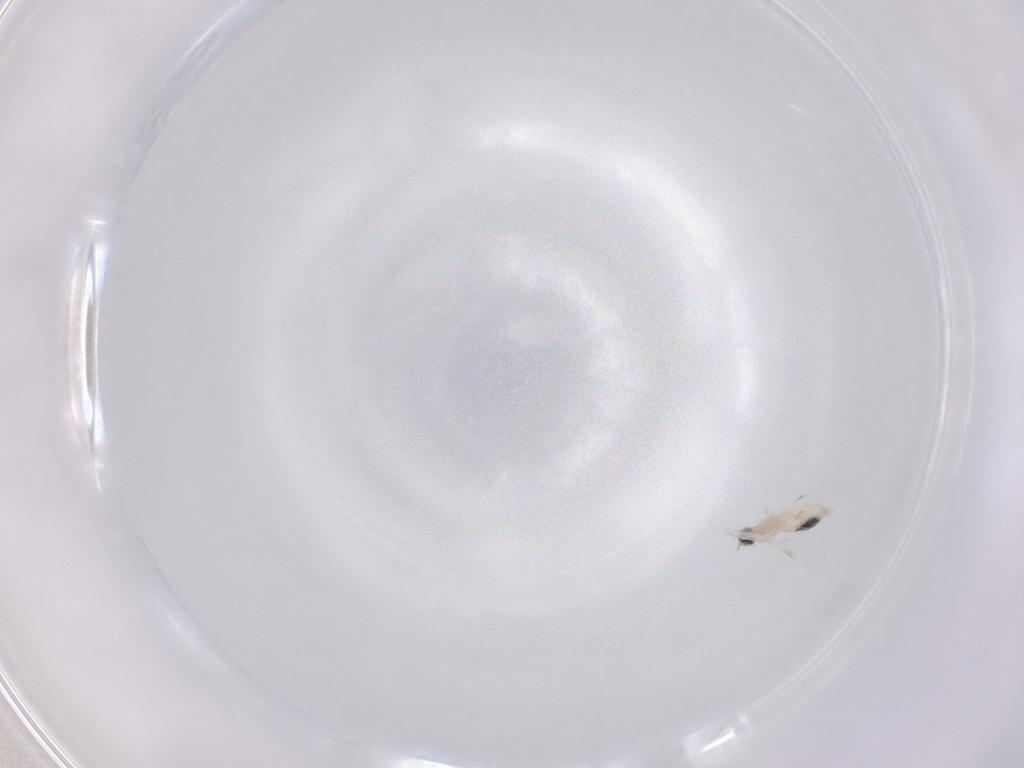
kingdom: Animalia
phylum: Arthropoda
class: Insecta
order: Diptera
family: Cecidomyiidae
